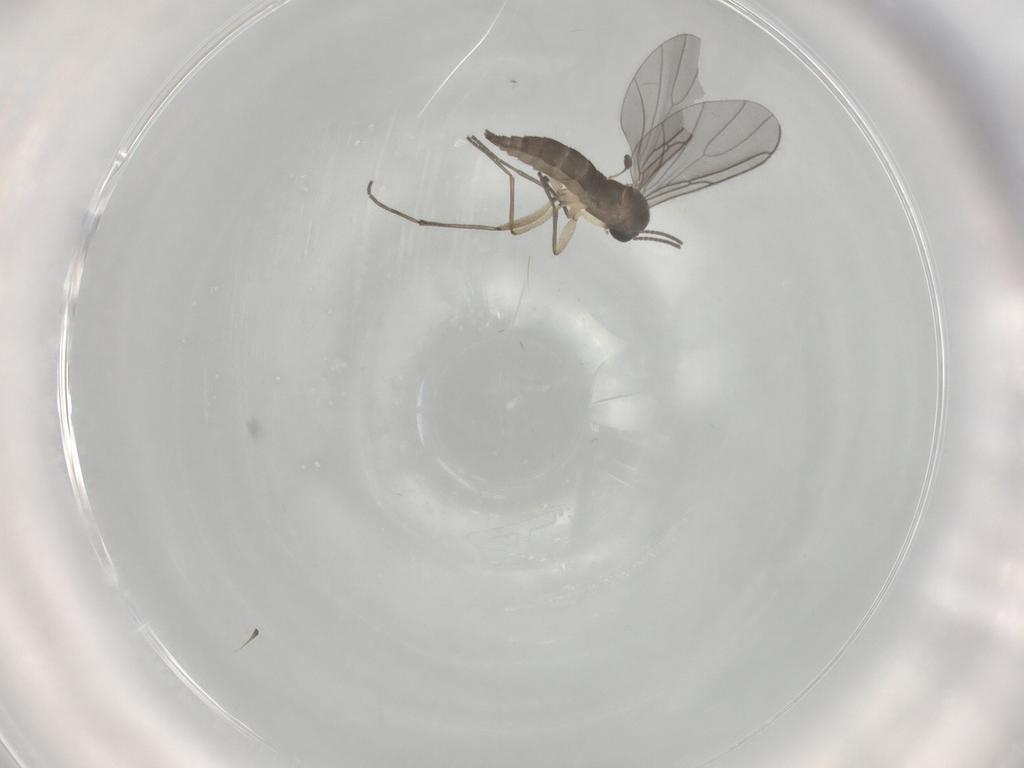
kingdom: Animalia
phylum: Arthropoda
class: Insecta
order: Diptera
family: Sciaridae
